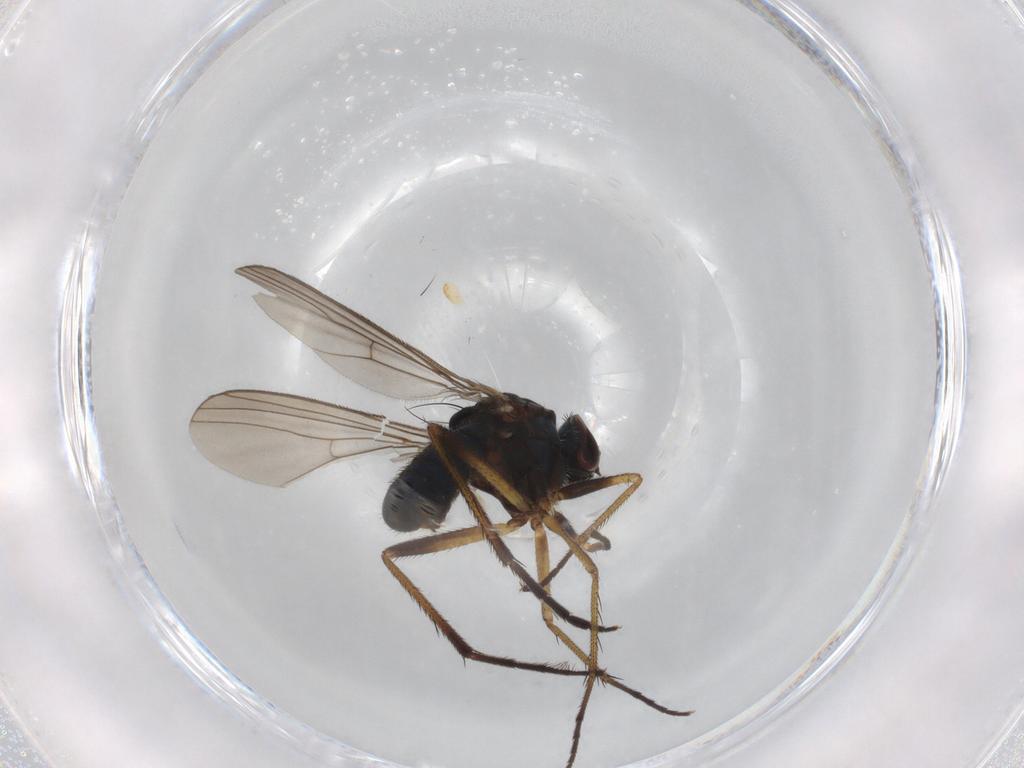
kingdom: Animalia
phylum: Arthropoda
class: Insecta
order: Diptera
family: Dolichopodidae
